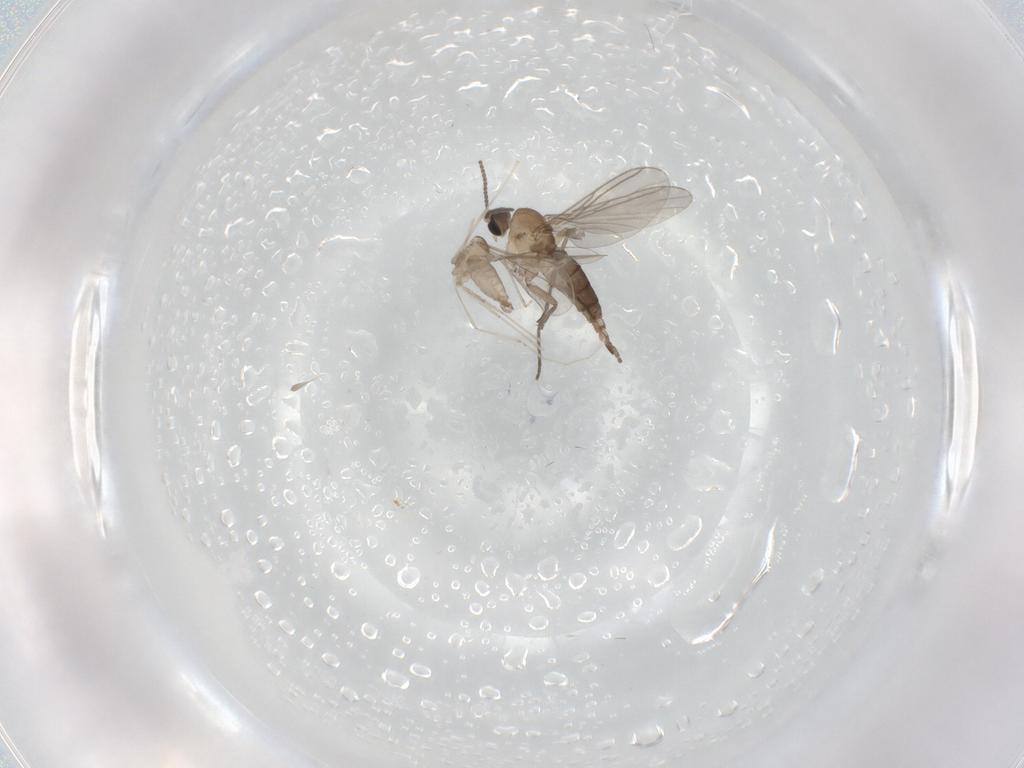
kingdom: Animalia
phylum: Arthropoda
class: Insecta
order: Diptera
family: Sciaridae
